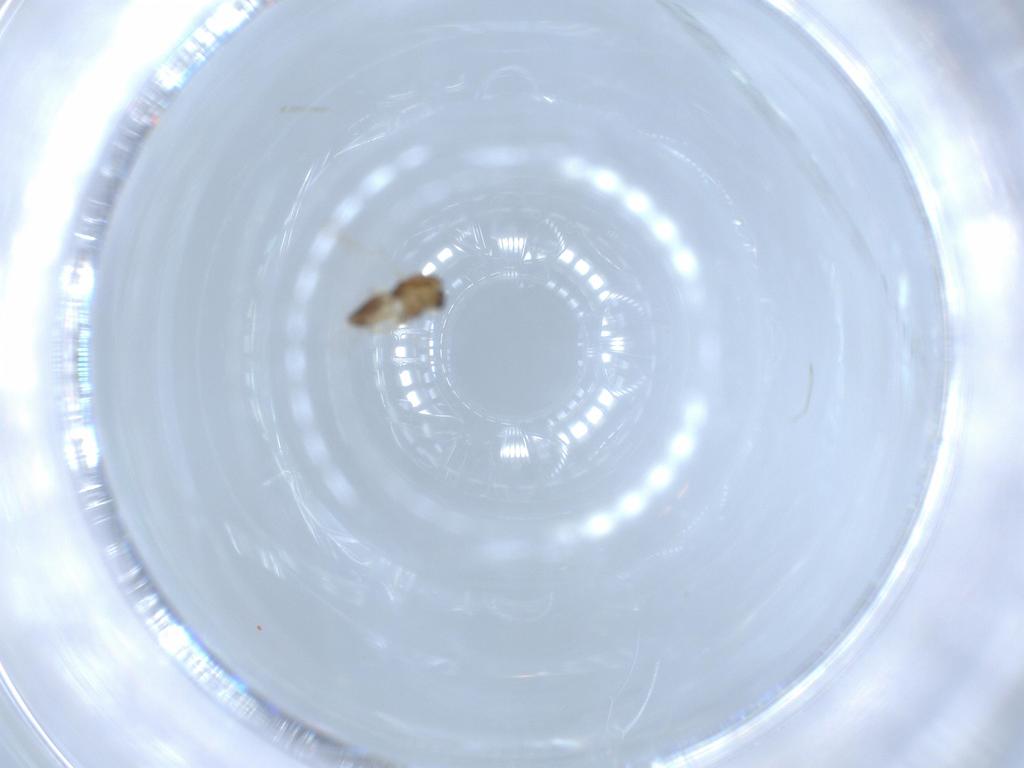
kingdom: Animalia
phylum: Arthropoda
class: Insecta
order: Diptera
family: Chironomidae
